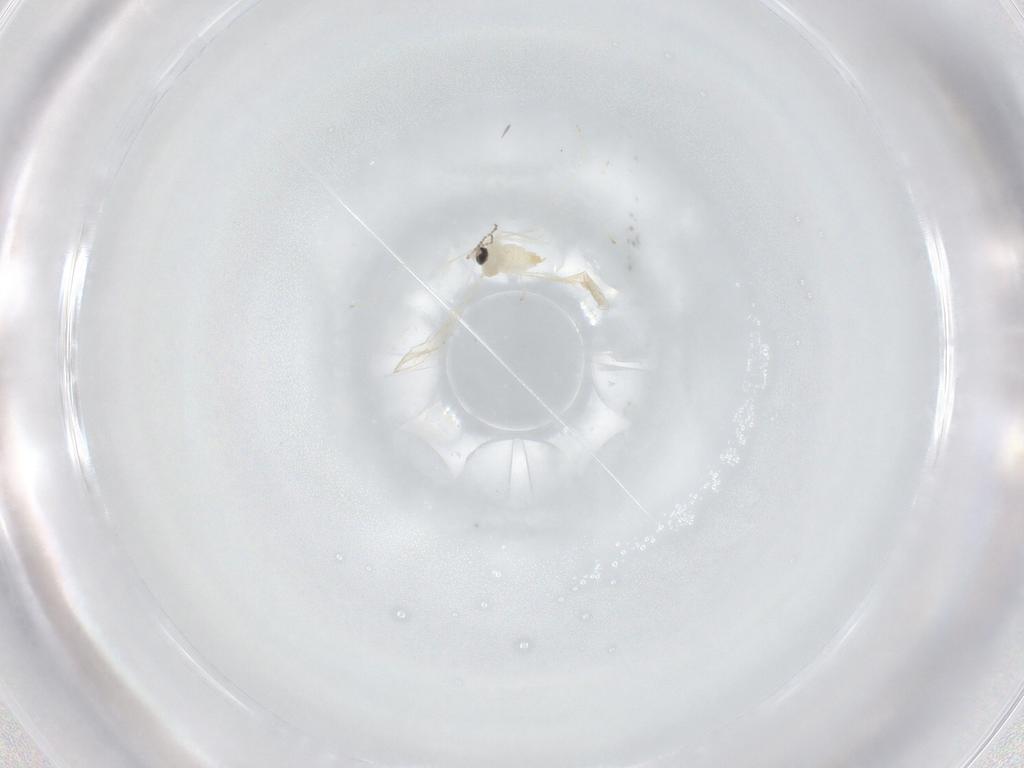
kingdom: Animalia
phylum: Arthropoda
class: Insecta
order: Diptera
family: Cecidomyiidae
